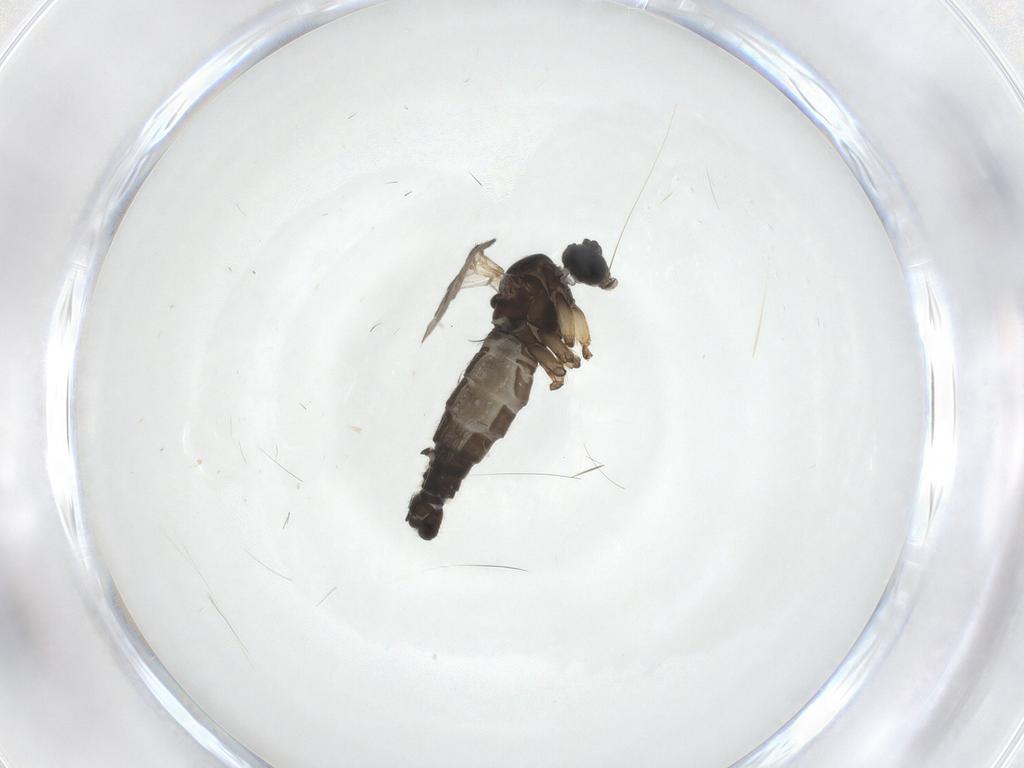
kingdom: Animalia
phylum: Arthropoda
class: Insecta
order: Diptera
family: Sciaridae
